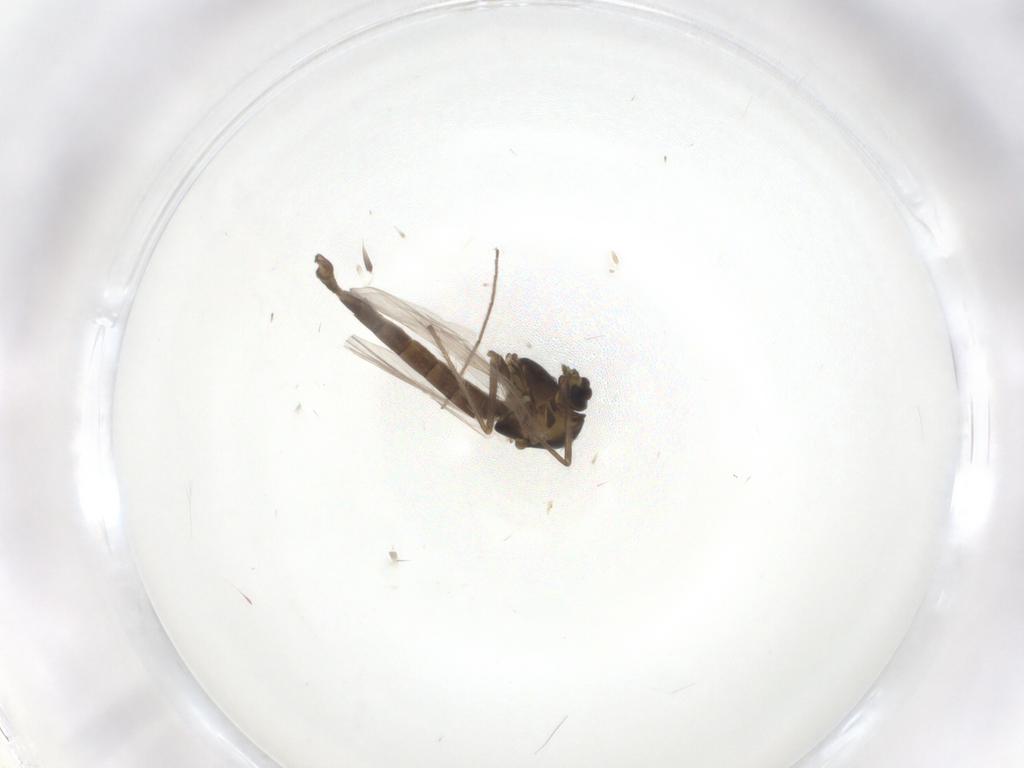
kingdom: Animalia
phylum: Arthropoda
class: Insecta
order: Diptera
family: Chironomidae
